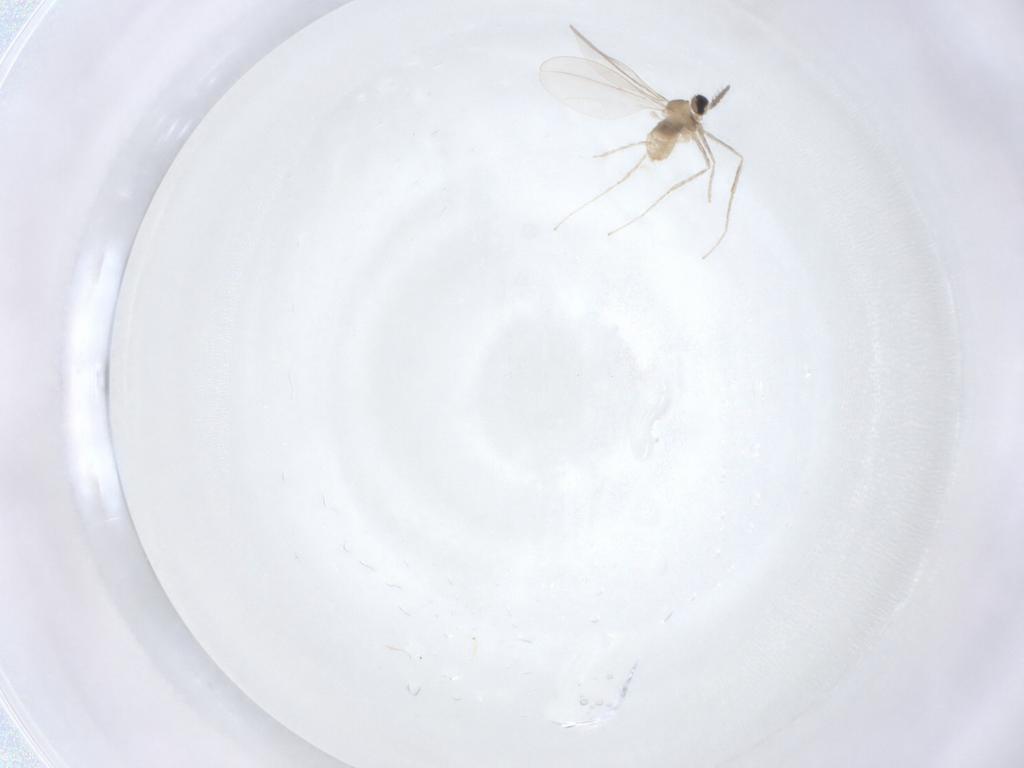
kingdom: Animalia
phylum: Arthropoda
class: Insecta
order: Diptera
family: Cecidomyiidae
